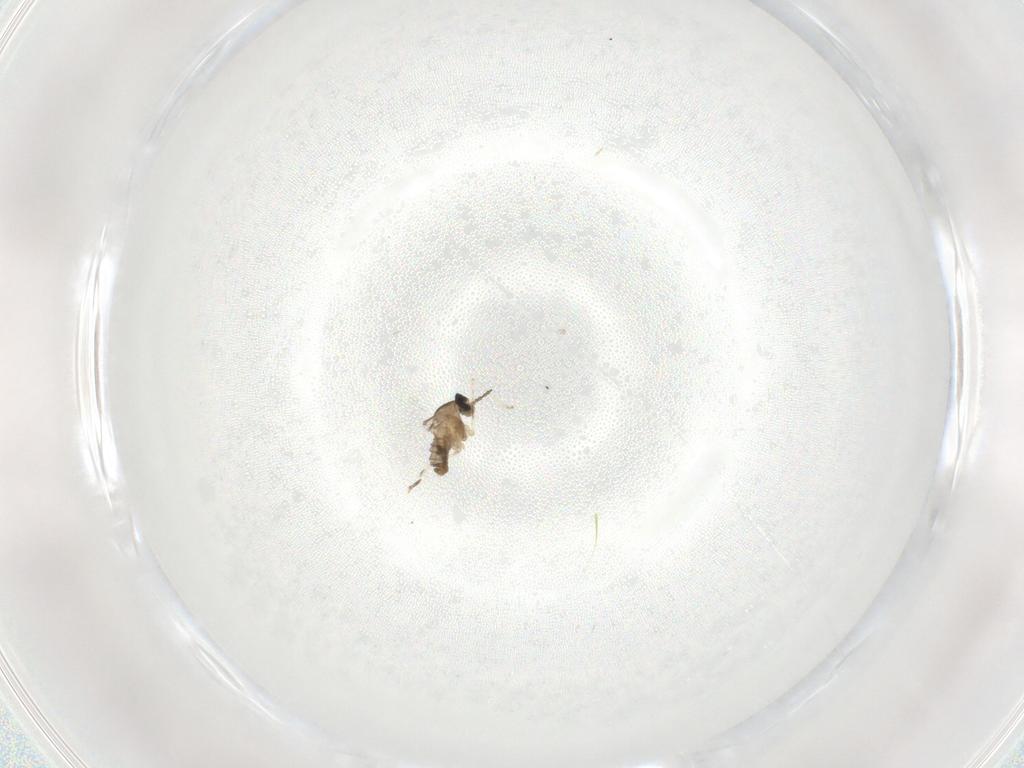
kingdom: Animalia
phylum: Arthropoda
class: Insecta
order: Diptera
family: Cecidomyiidae
